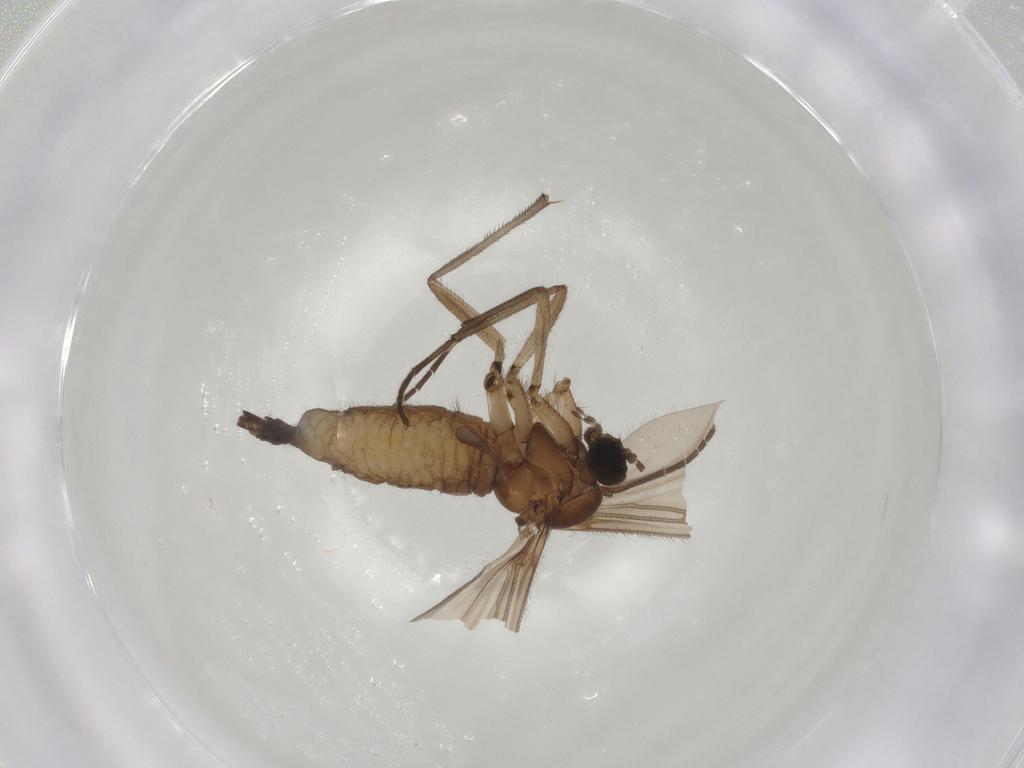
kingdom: Animalia
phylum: Arthropoda
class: Insecta
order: Diptera
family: Sciaridae
